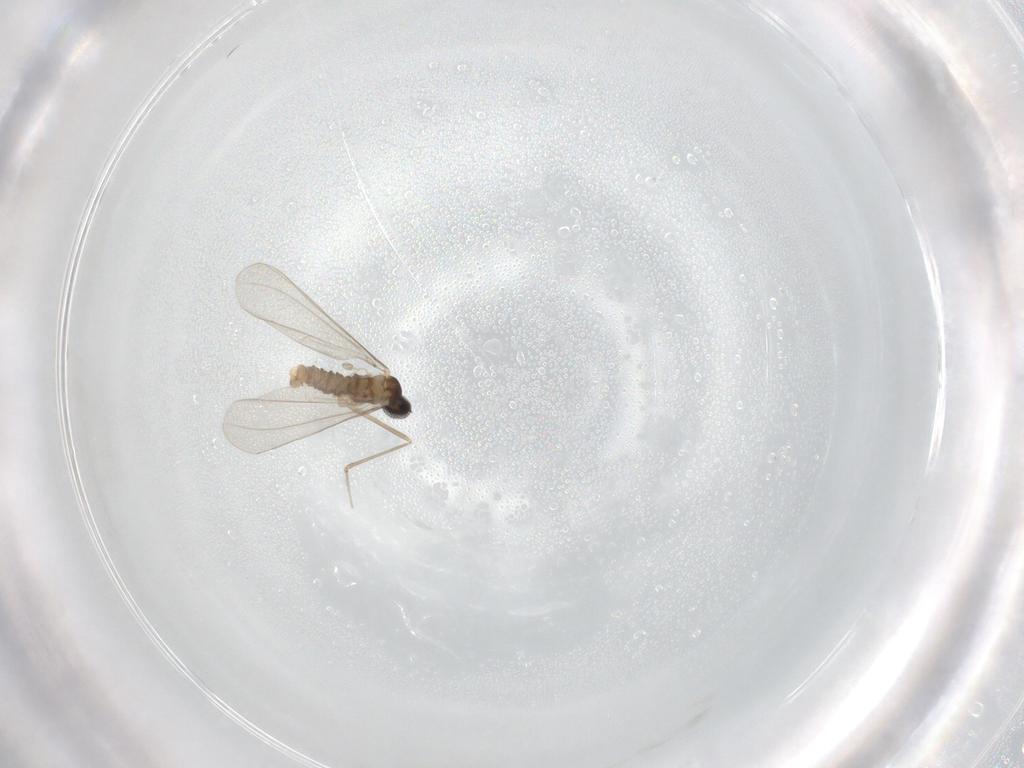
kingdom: Animalia
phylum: Arthropoda
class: Insecta
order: Diptera
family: Cecidomyiidae
